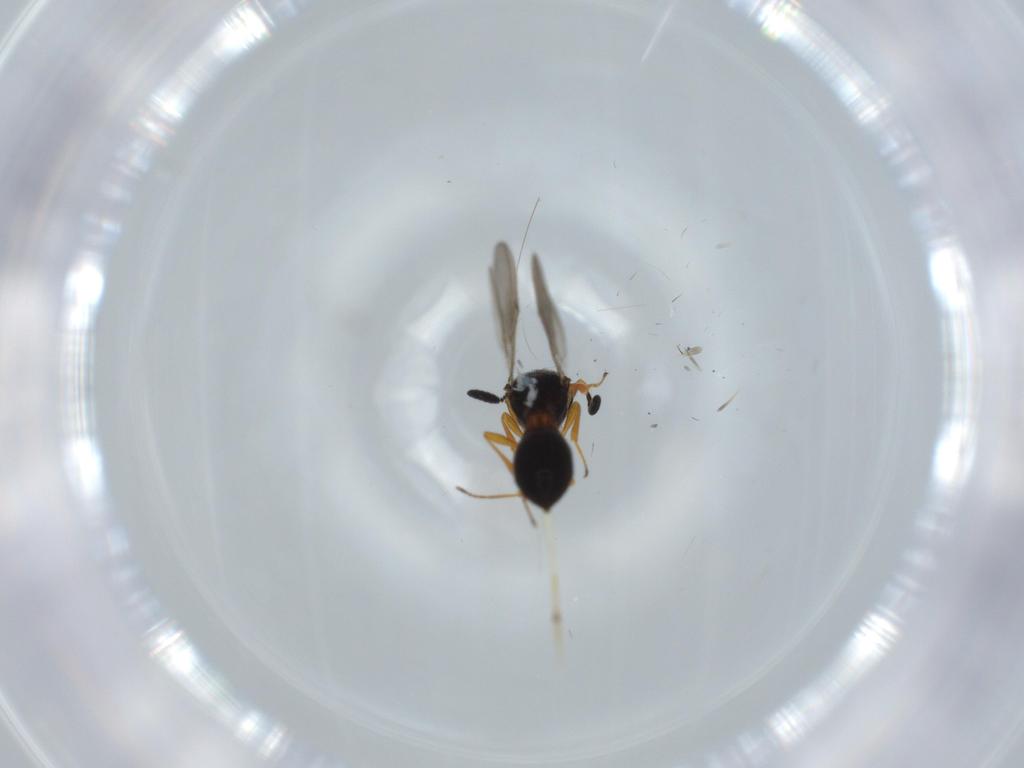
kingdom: Animalia
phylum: Arthropoda
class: Insecta
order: Hymenoptera
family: Scelionidae
